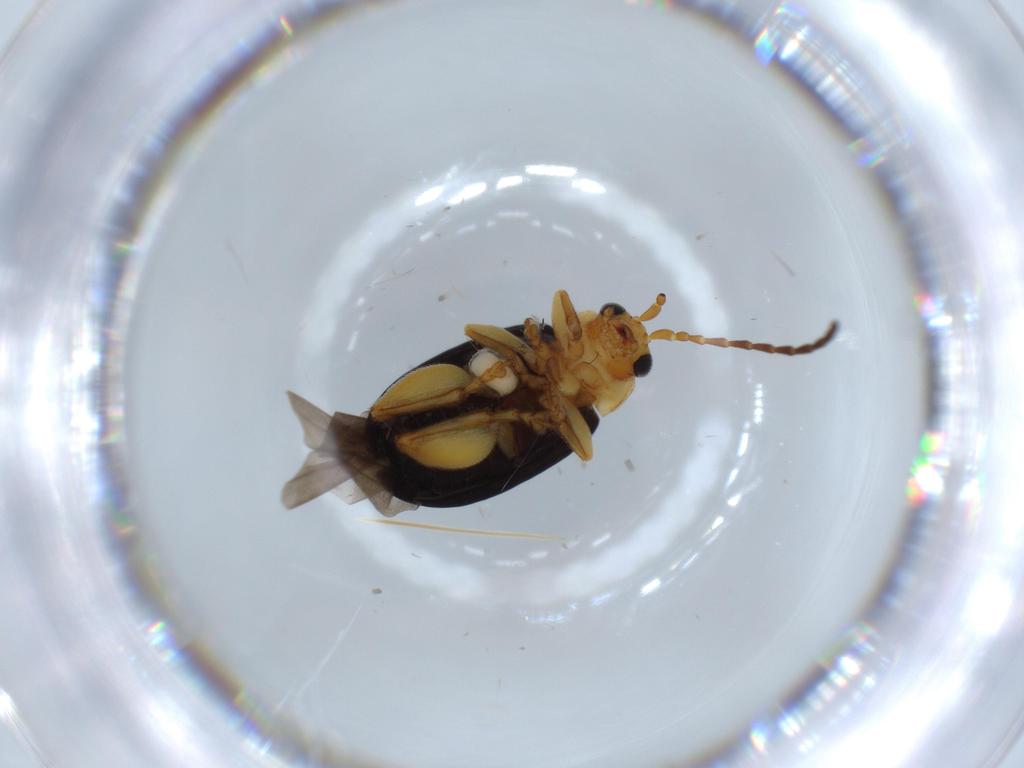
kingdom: Animalia
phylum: Arthropoda
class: Insecta
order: Coleoptera
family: Chrysomelidae
